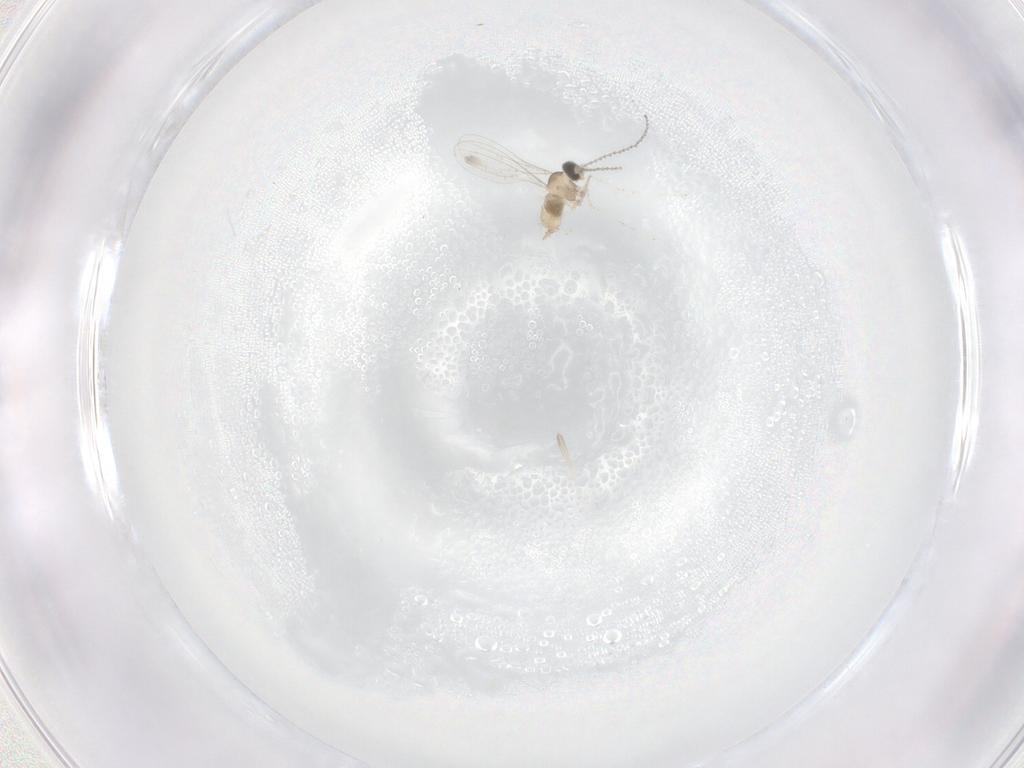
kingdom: Animalia
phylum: Arthropoda
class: Insecta
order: Diptera
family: Cecidomyiidae
